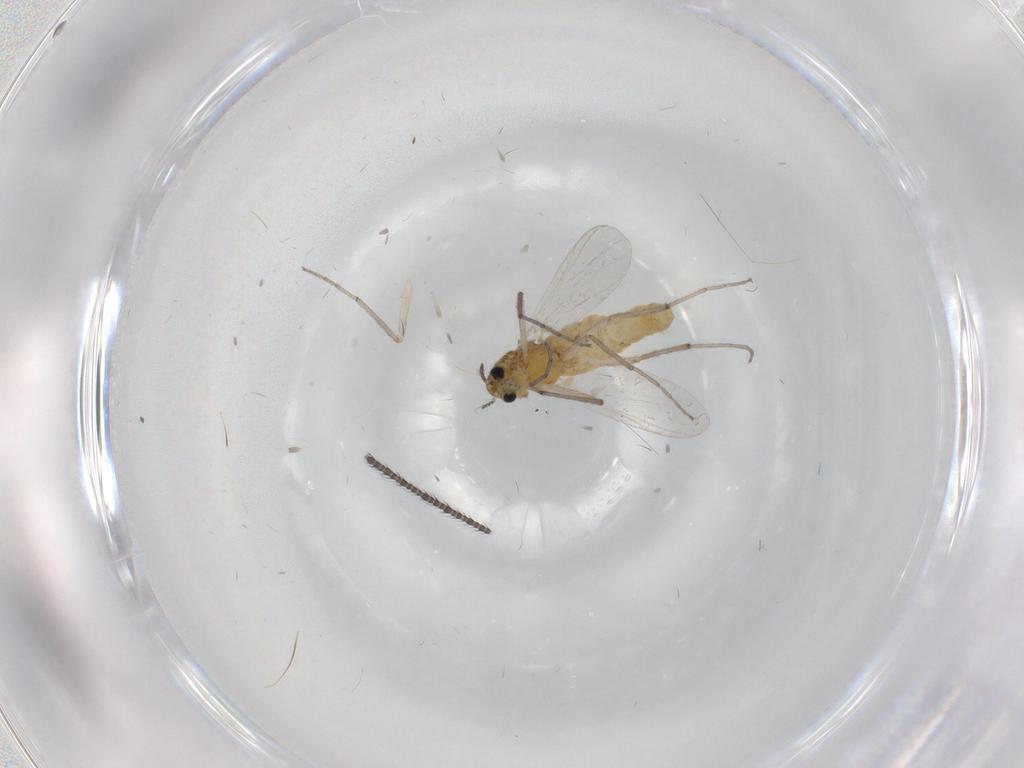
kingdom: Animalia
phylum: Arthropoda
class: Insecta
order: Diptera
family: Chironomidae
